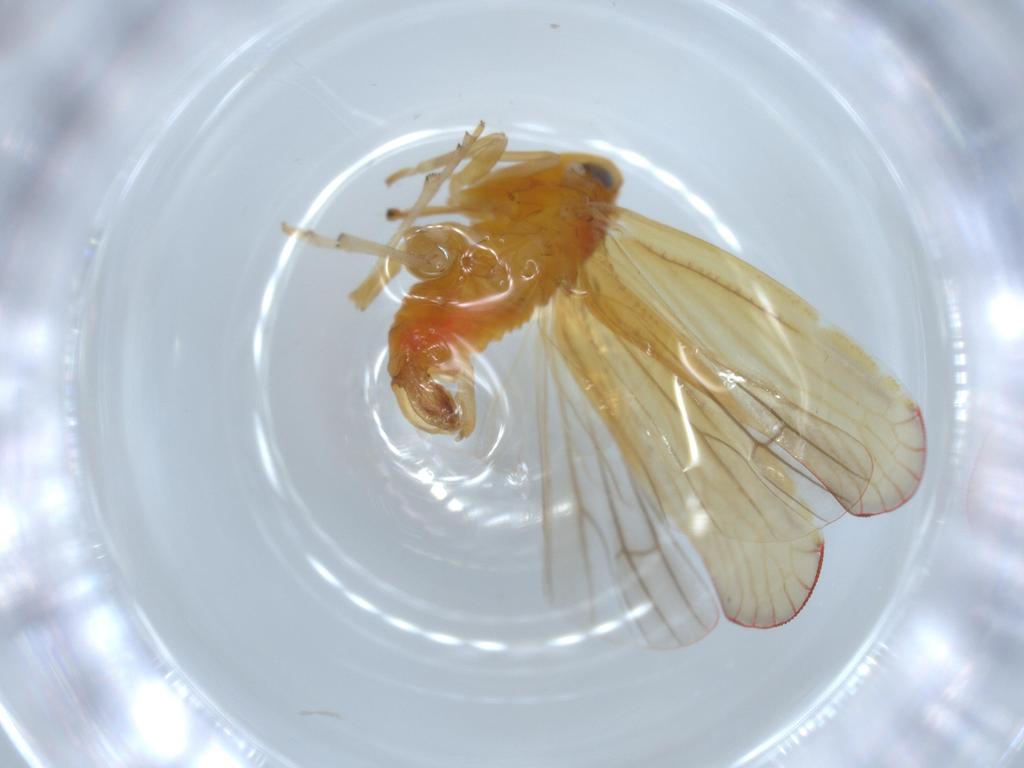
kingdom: Animalia
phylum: Arthropoda
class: Insecta
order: Hemiptera
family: Derbidae
